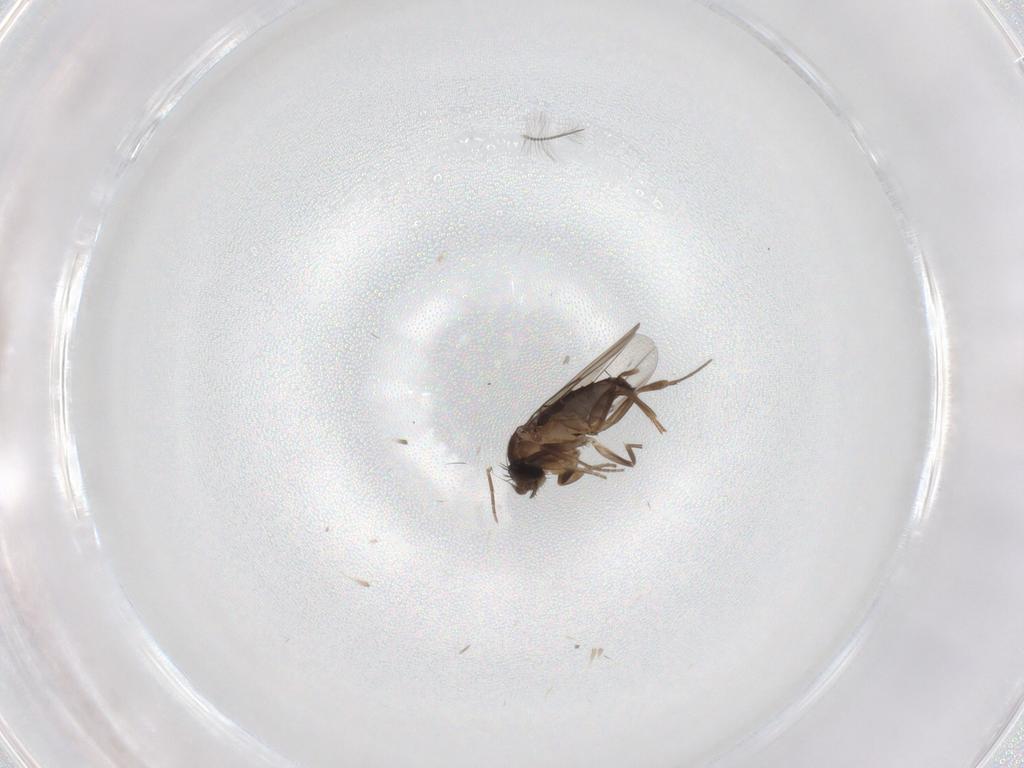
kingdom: Animalia
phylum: Arthropoda
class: Insecta
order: Diptera
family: Phoridae
